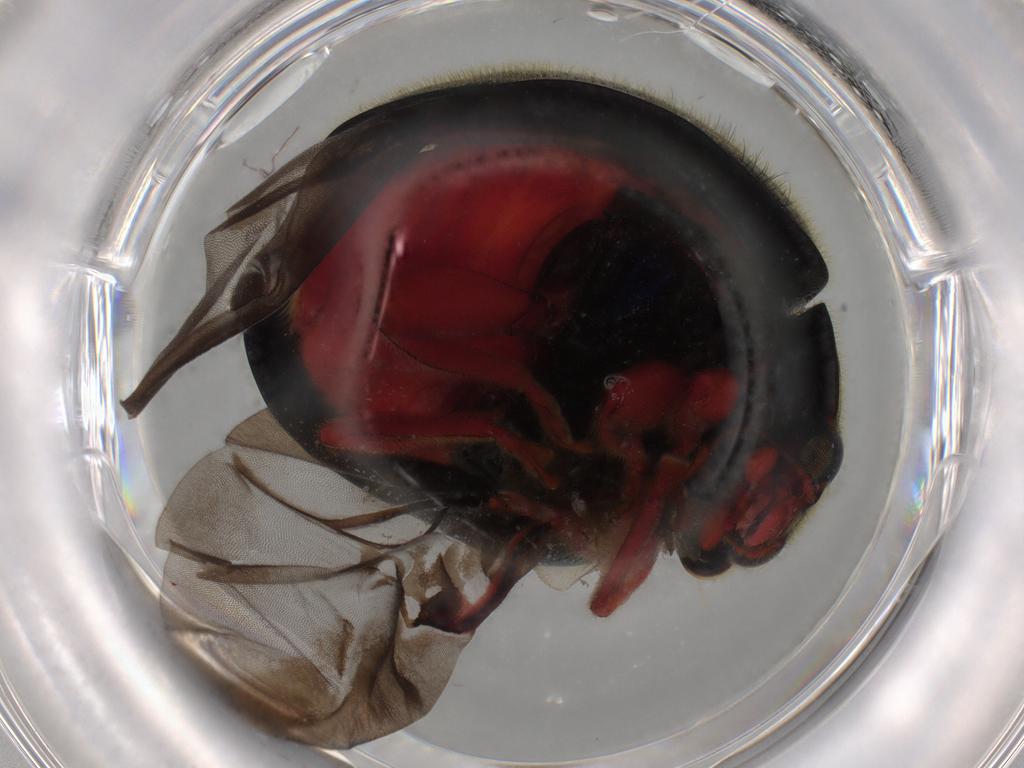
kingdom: Animalia
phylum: Arthropoda
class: Insecta
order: Coleoptera
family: Coccinellidae
